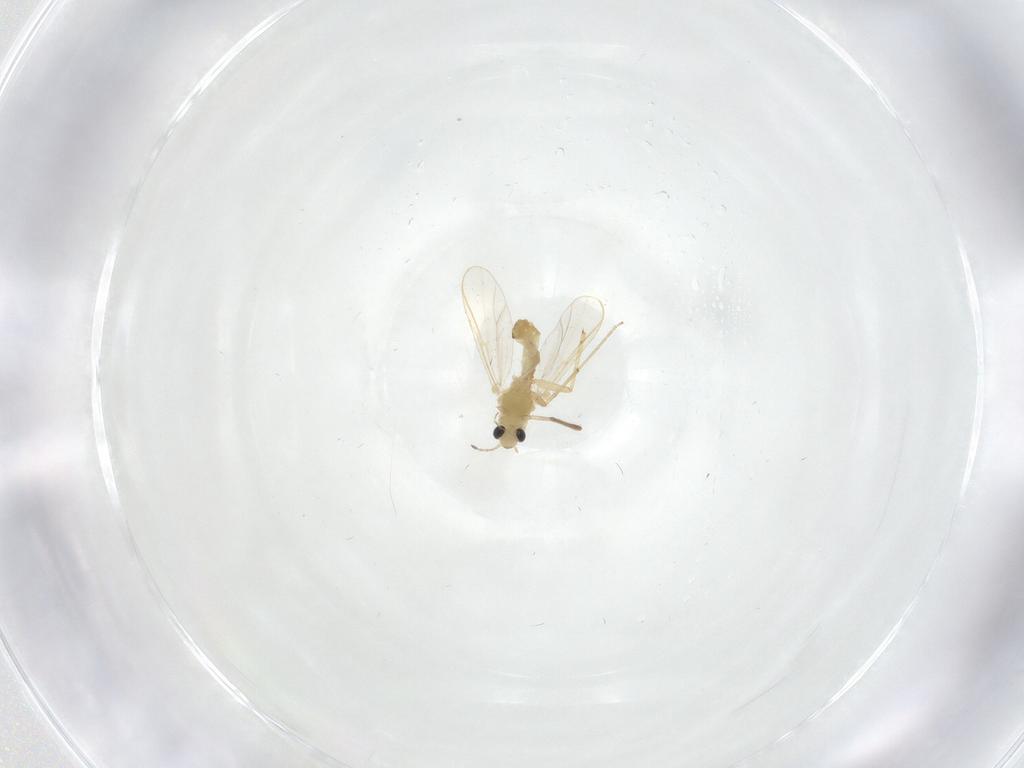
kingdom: Animalia
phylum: Arthropoda
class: Insecta
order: Diptera
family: Chironomidae
